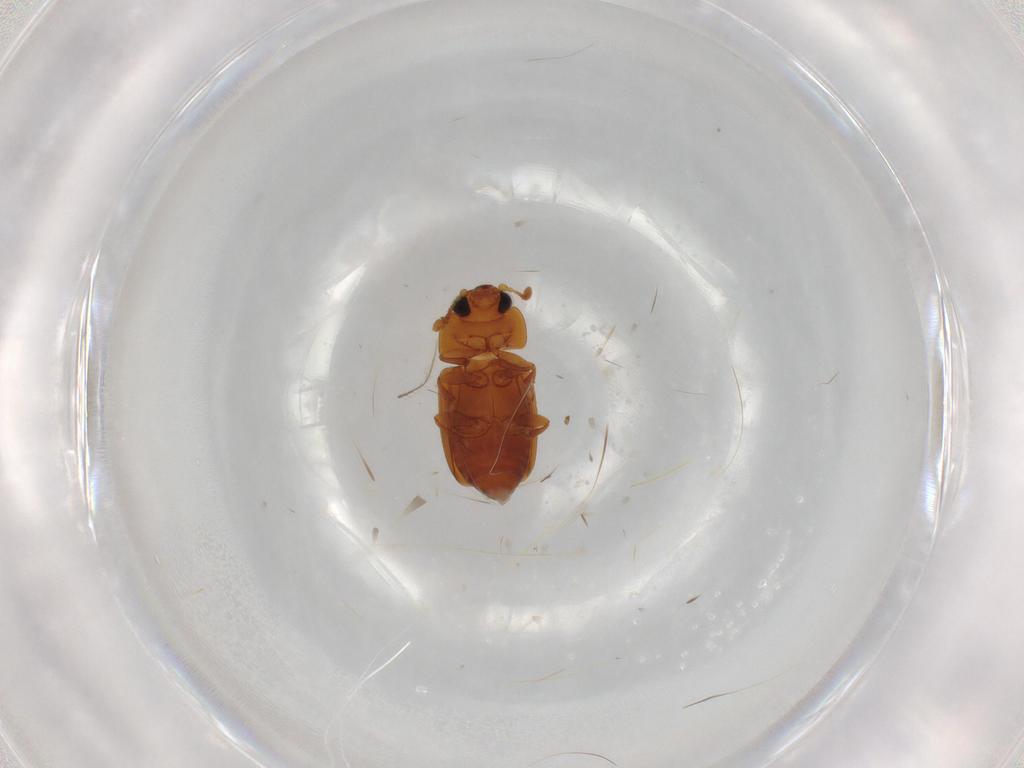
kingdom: Animalia
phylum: Arthropoda
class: Insecta
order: Coleoptera
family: Nitidulidae
